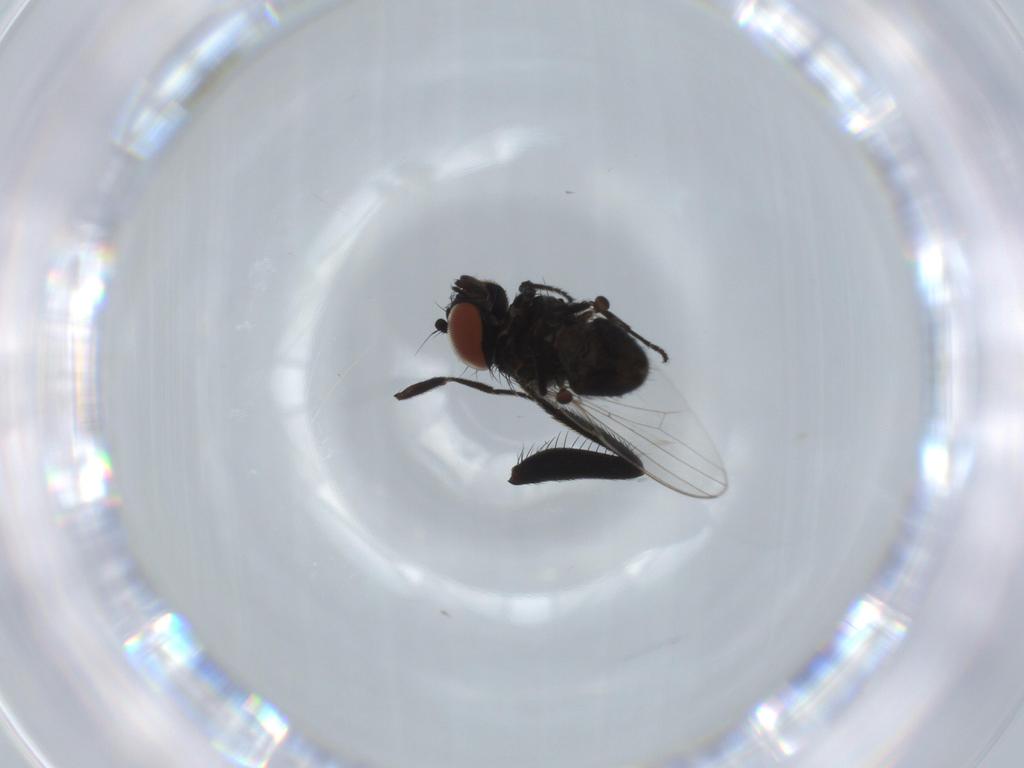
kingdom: Animalia
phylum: Arthropoda
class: Insecta
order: Diptera
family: Milichiidae
